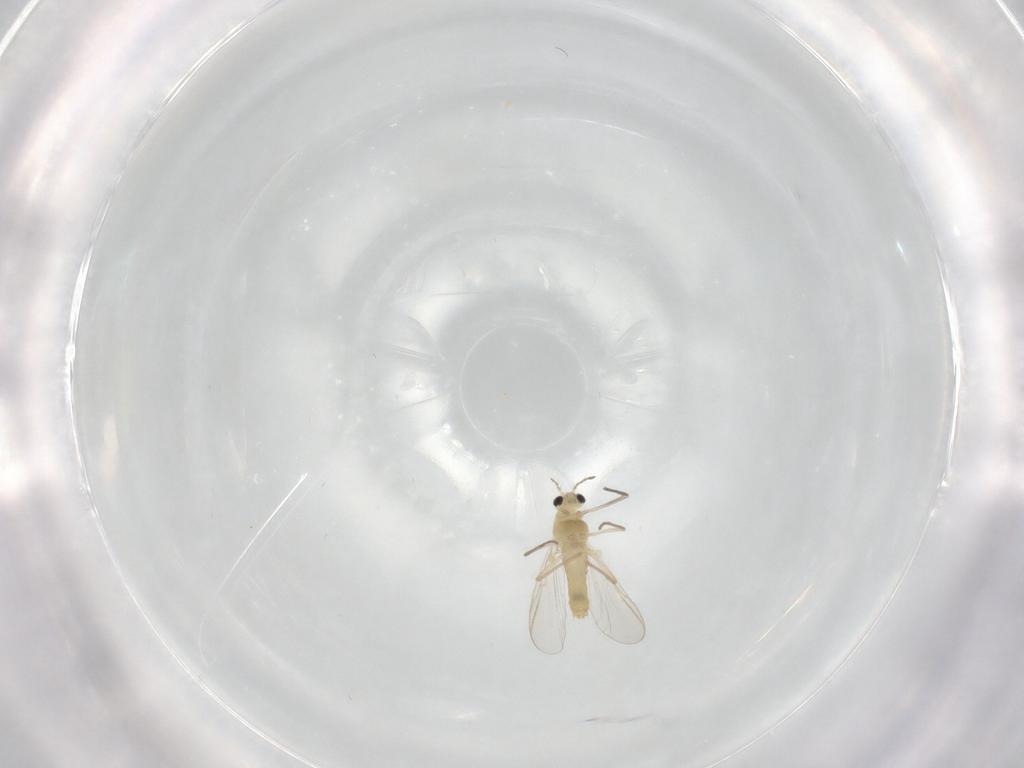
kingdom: Animalia
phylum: Arthropoda
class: Insecta
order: Diptera
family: Chironomidae
